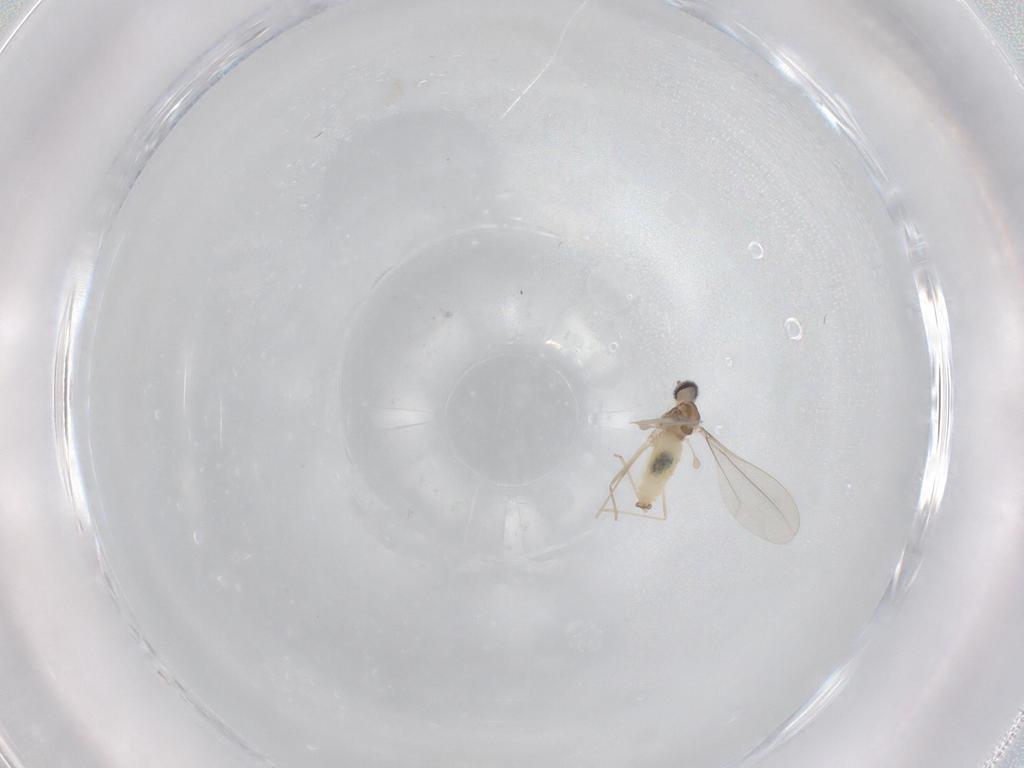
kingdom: Animalia
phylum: Arthropoda
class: Insecta
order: Diptera
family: Cecidomyiidae
